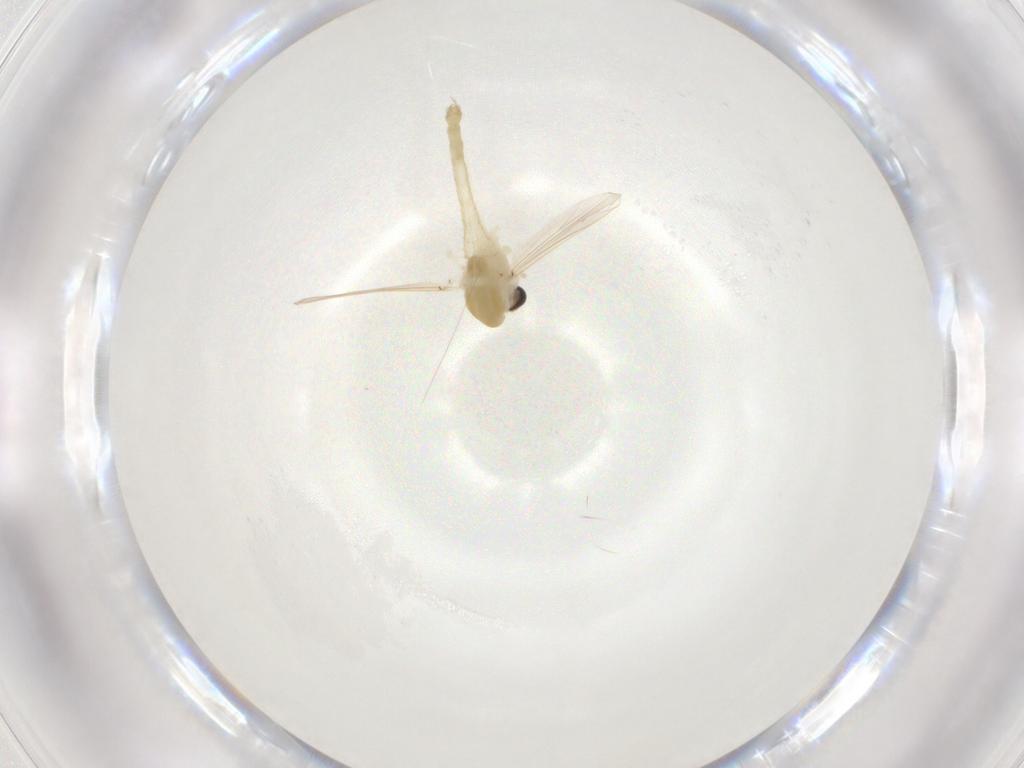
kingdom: Animalia
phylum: Arthropoda
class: Insecta
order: Diptera
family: Chironomidae
